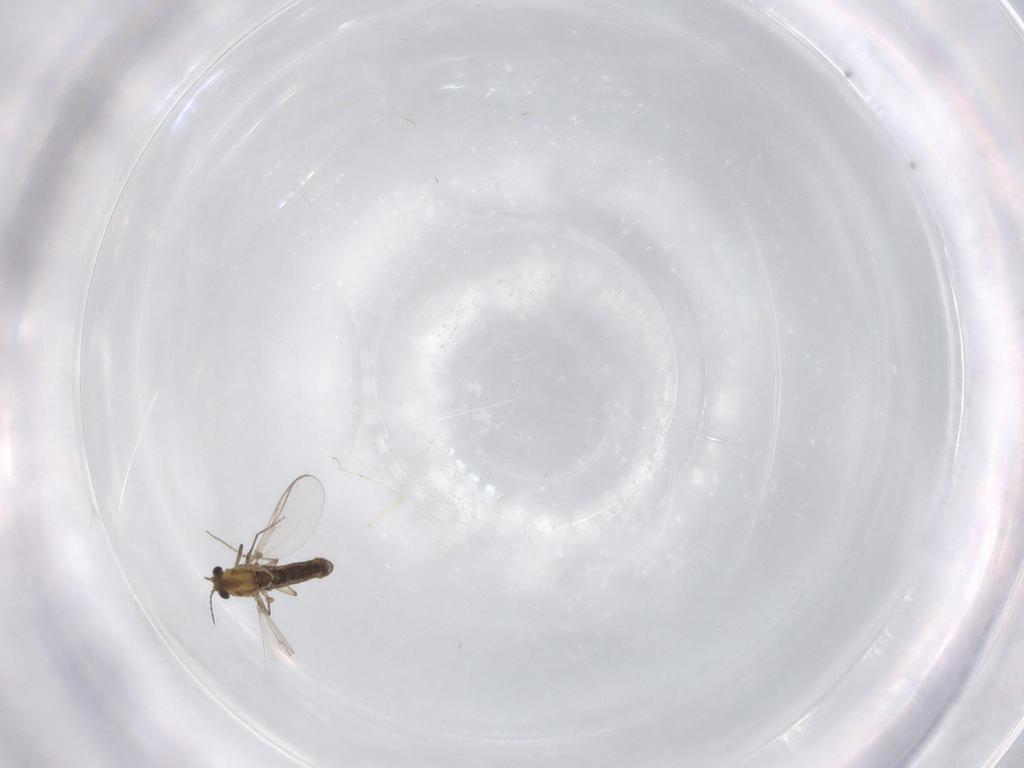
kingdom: Animalia
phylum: Arthropoda
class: Insecta
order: Diptera
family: Chironomidae
